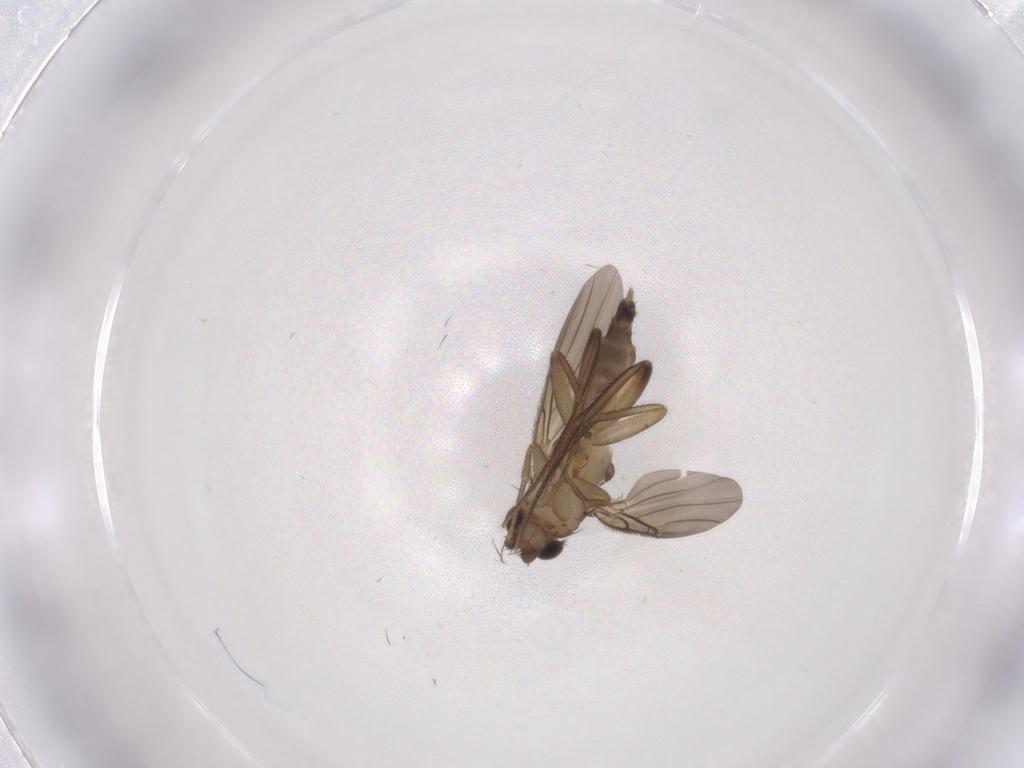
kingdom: Animalia
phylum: Arthropoda
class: Insecta
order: Diptera
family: Phoridae
